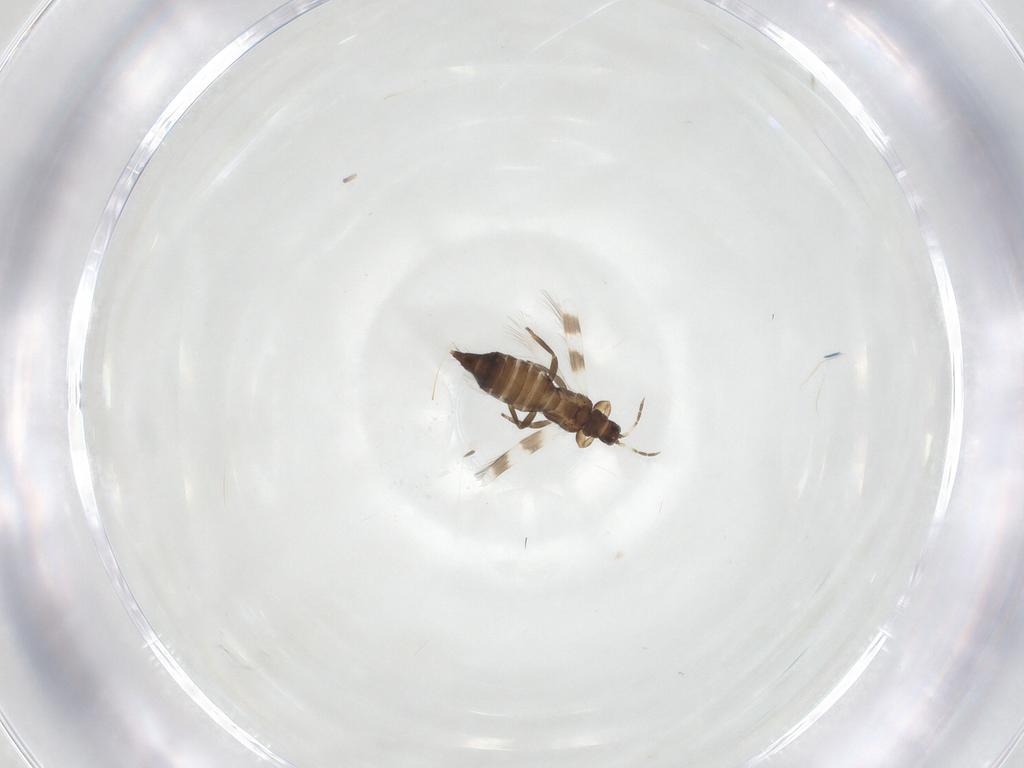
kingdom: Animalia
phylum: Arthropoda
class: Insecta
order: Thysanoptera
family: Aeolothripidae
